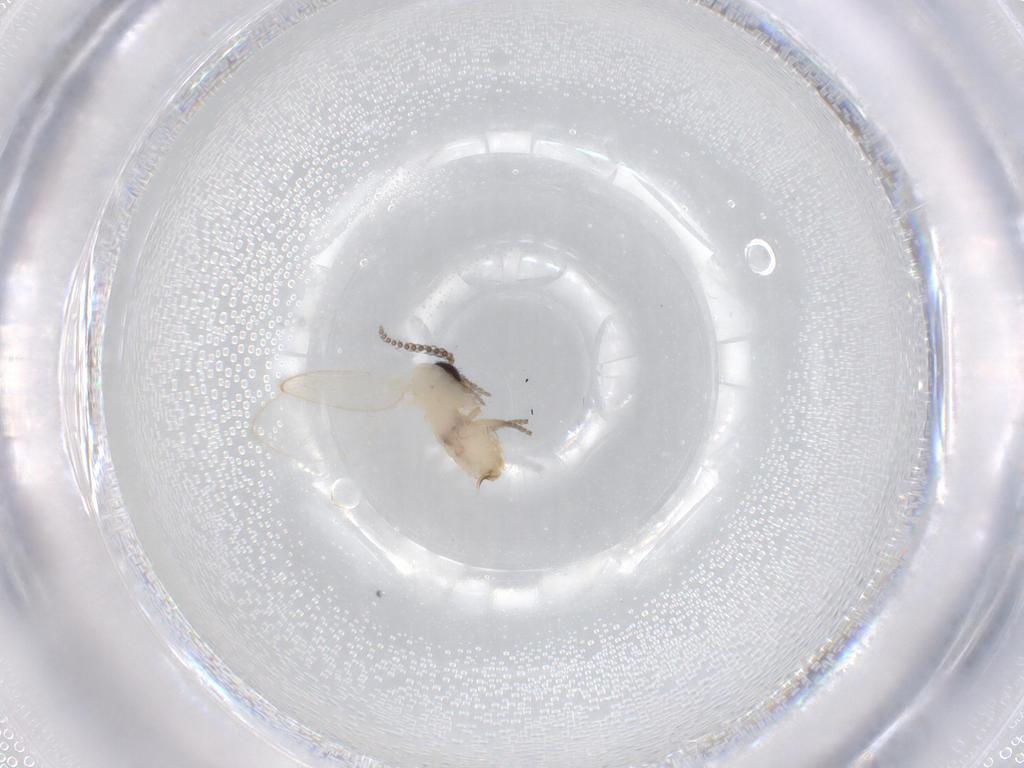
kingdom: Animalia
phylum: Arthropoda
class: Insecta
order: Diptera
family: Psychodidae
